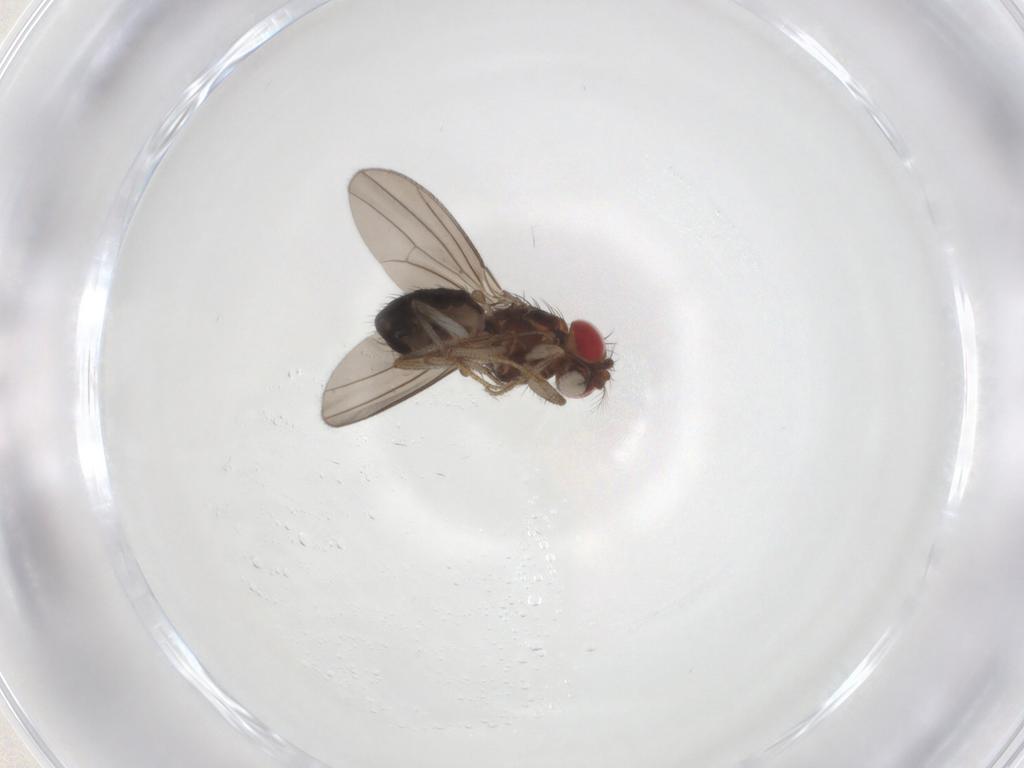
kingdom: Animalia
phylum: Arthropoda
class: Insecta
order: Diptera
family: Drosophilidae
